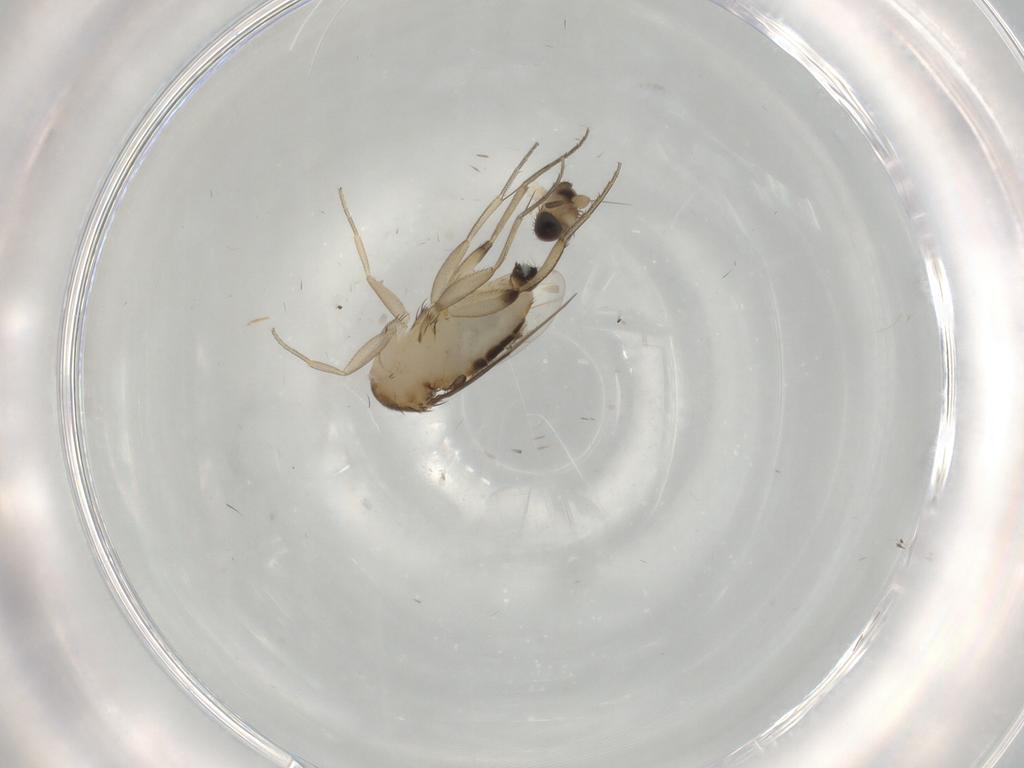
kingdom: Animalia
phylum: Arthropoda
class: Insecta
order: Diptera
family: Phoridae
